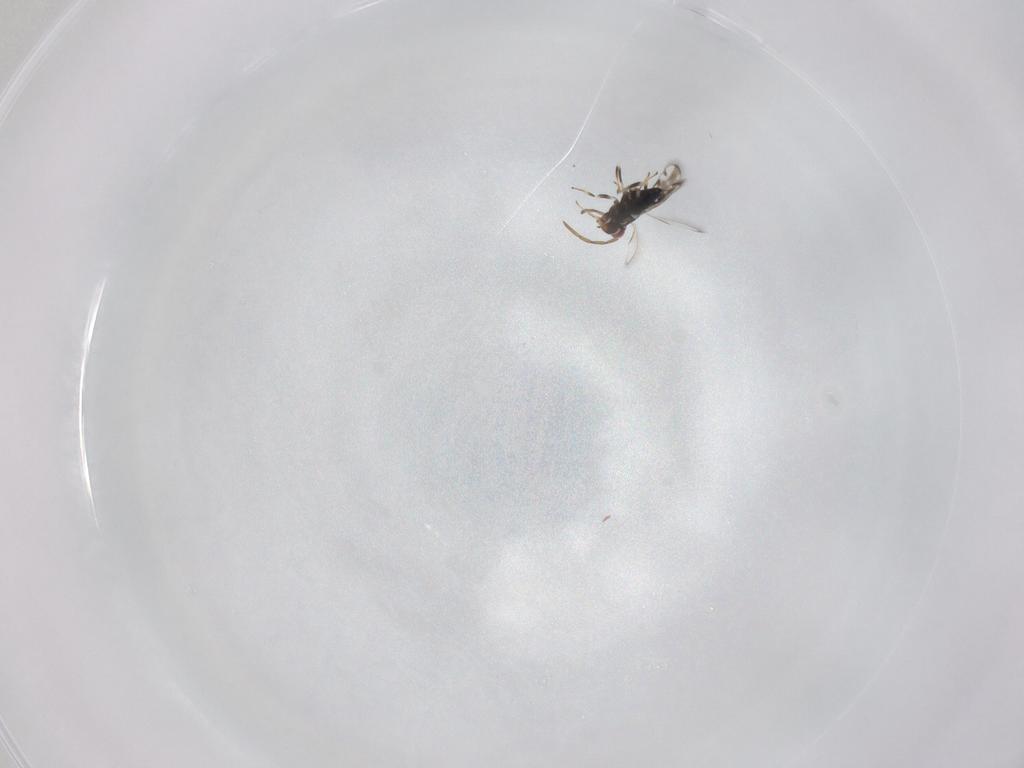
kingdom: Animalia
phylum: Arthropoda
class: Insecta
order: Hymenoptera
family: Azotidae
